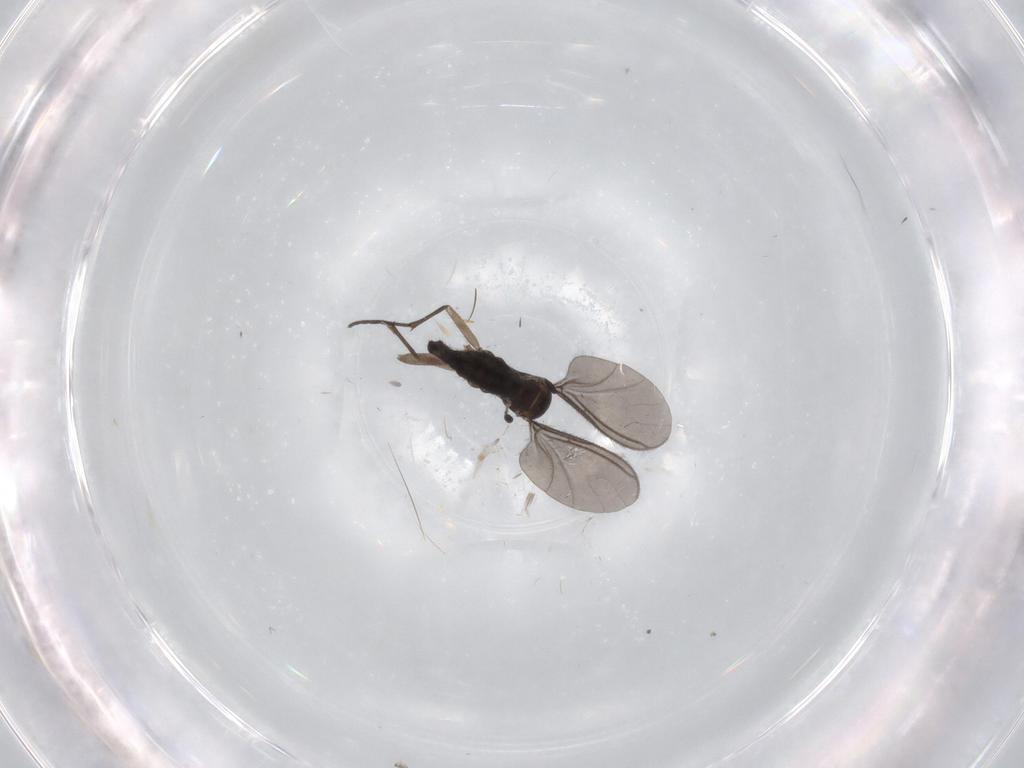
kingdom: Animalia
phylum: Arthropoda
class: Insecta
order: Diptera
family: Sciaridae
